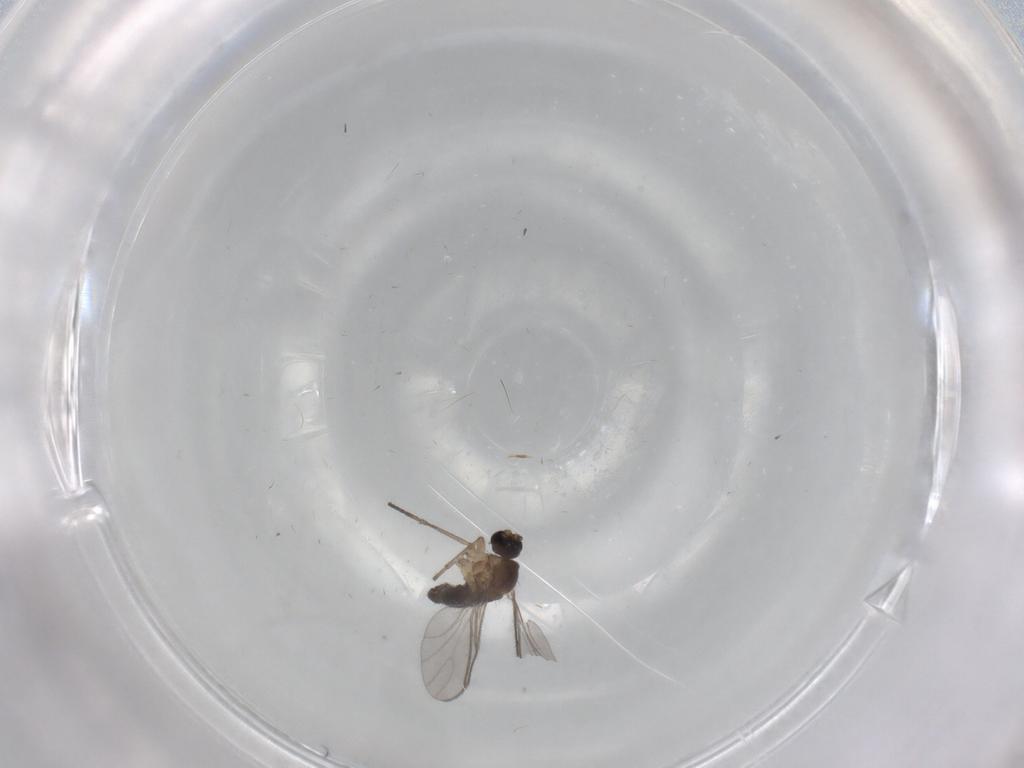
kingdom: Animalia
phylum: Arthropoda
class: Insecta
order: Diptera
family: Sciaridae
